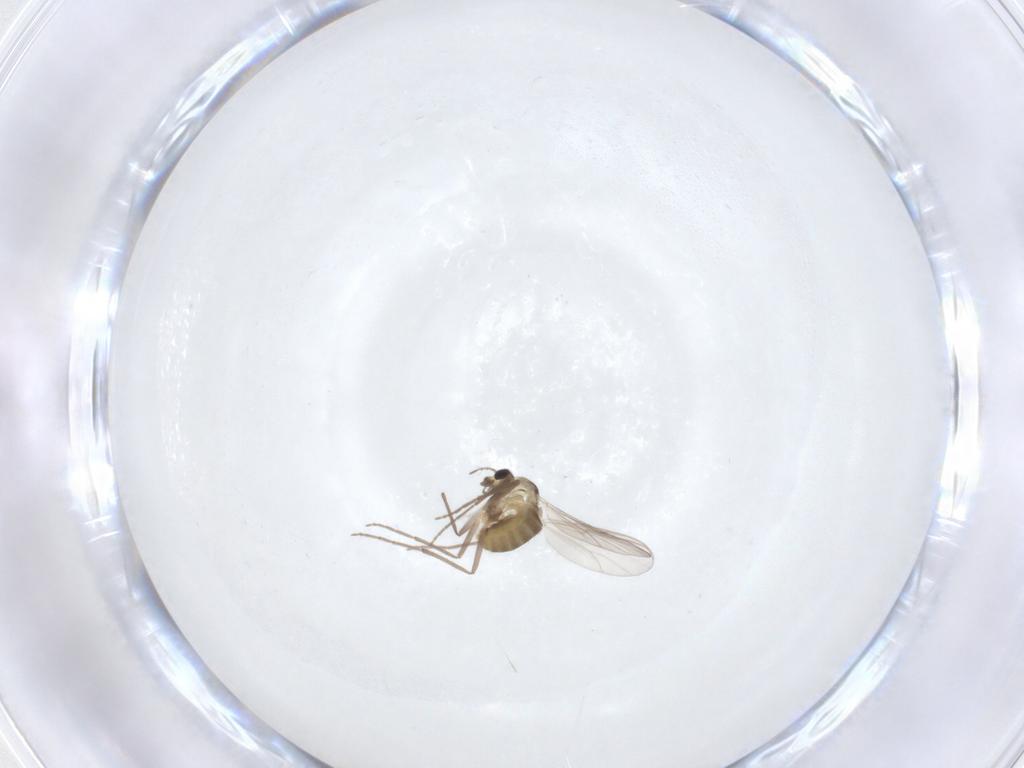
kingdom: Animalia
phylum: Arthropoda
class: Insecta
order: Diptera
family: Chironomidae
